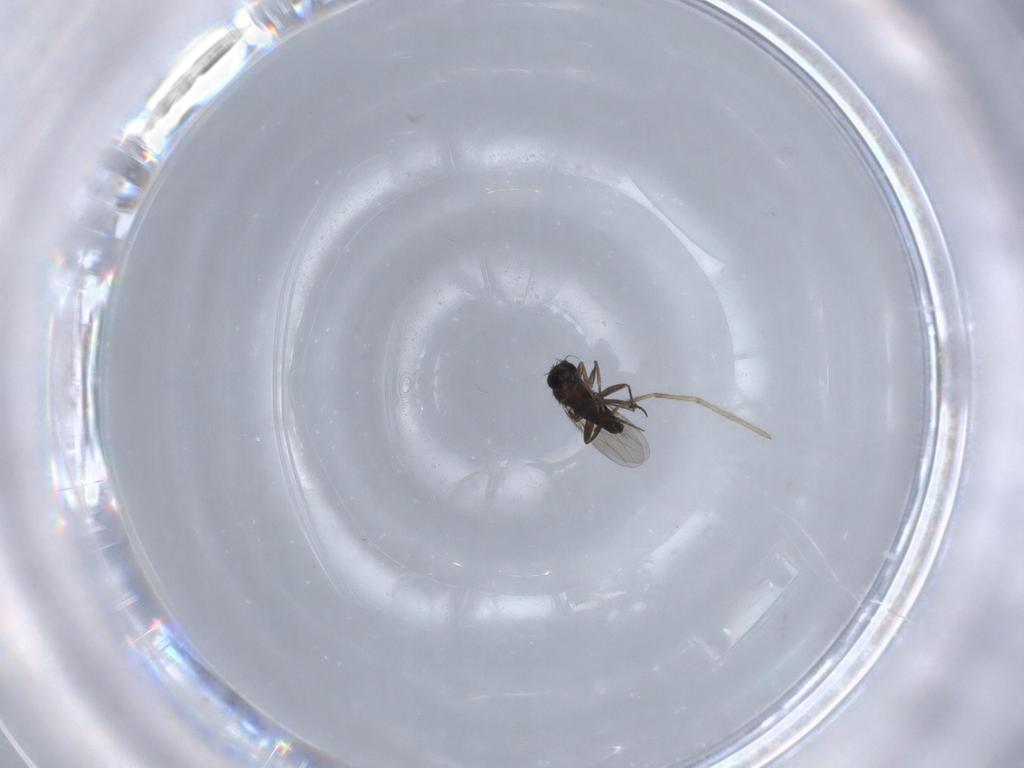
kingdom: Animalia
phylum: Arthropoda
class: Insecta
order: Diptera
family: Phoridae
